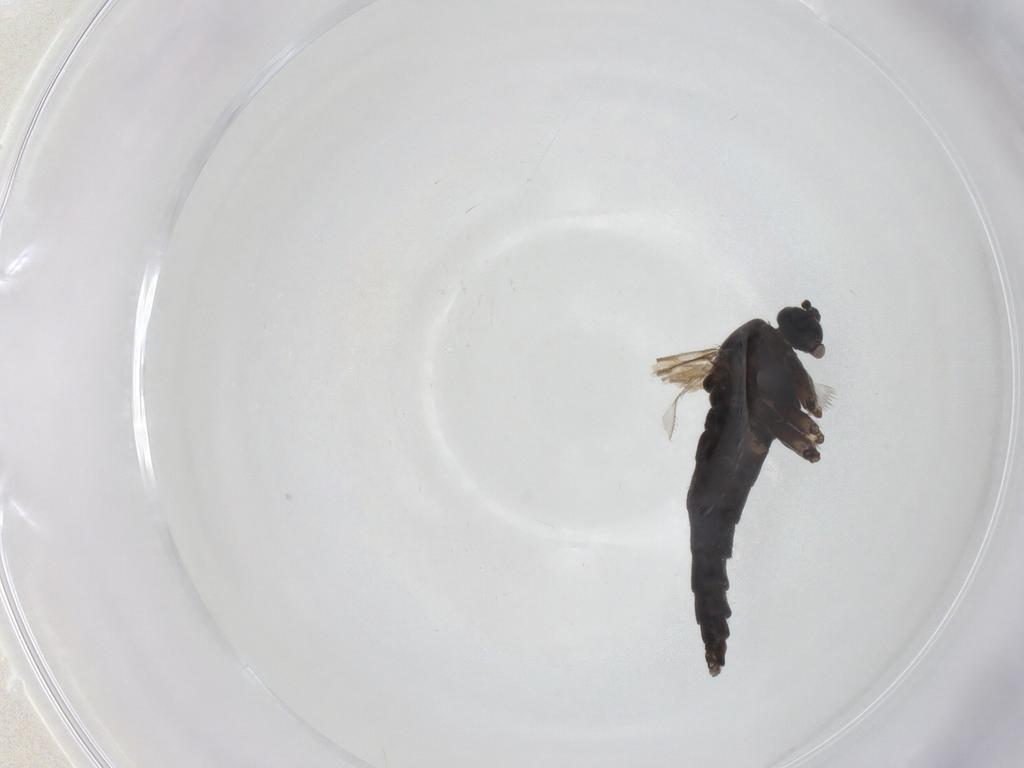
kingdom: Animalia
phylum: Arthropoda
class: Insecta
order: Diptera
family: Sciaridae
